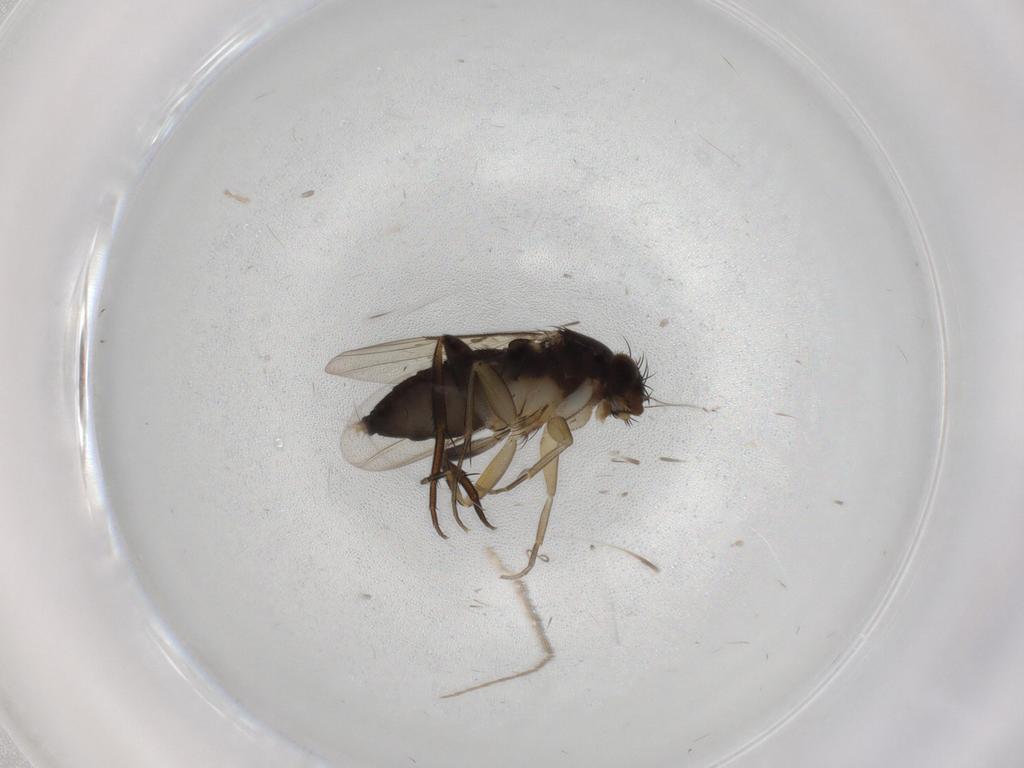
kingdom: Animalia
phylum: Arthropoda
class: Insecta
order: Diptera
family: Phoridae
